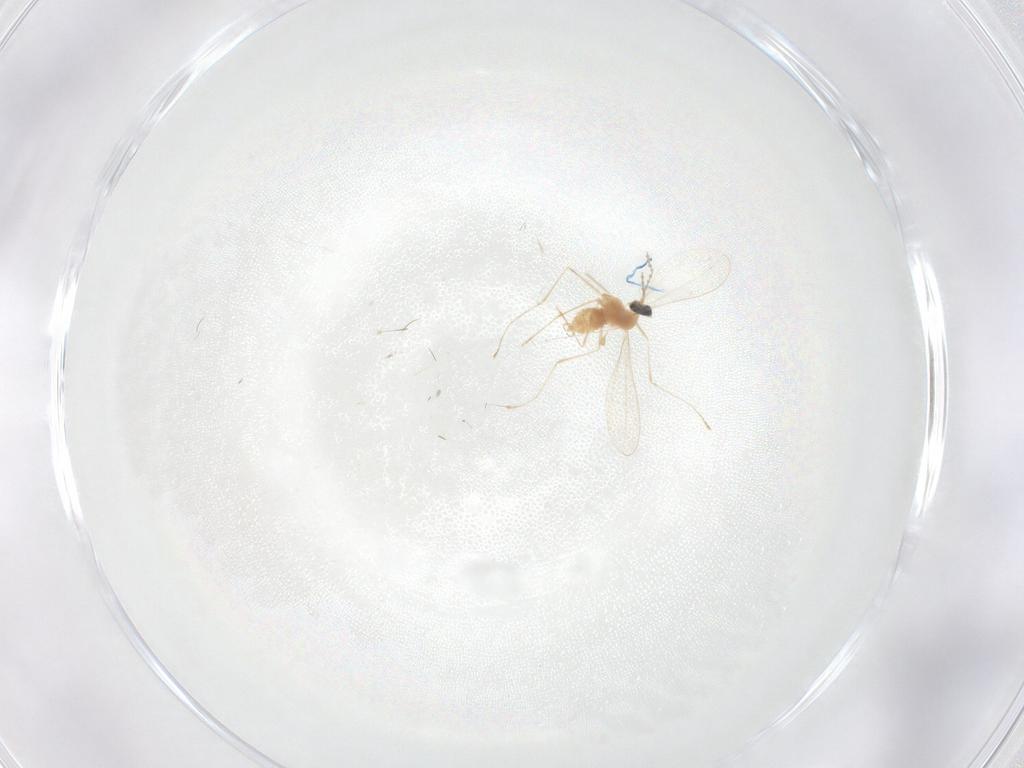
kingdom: Animalia
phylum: Arthropoda
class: Insecta
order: Diptera
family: Cecidomyiidae
